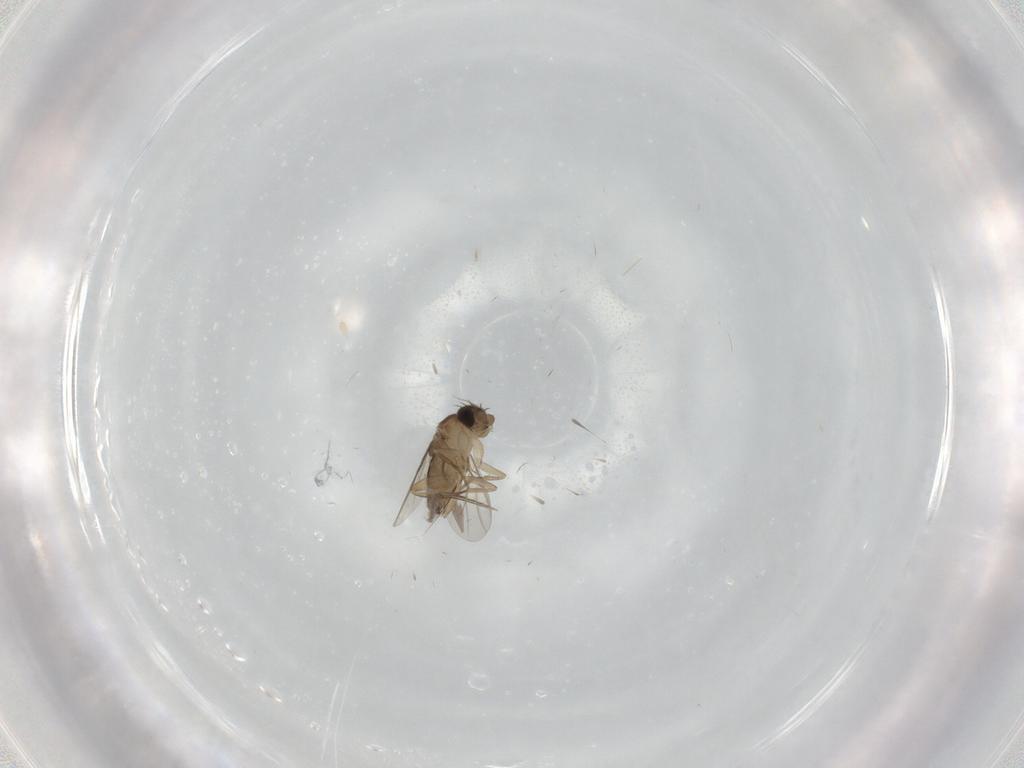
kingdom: Animalia
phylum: Arthropoda
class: Insecta
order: Diptera
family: Phoridae
